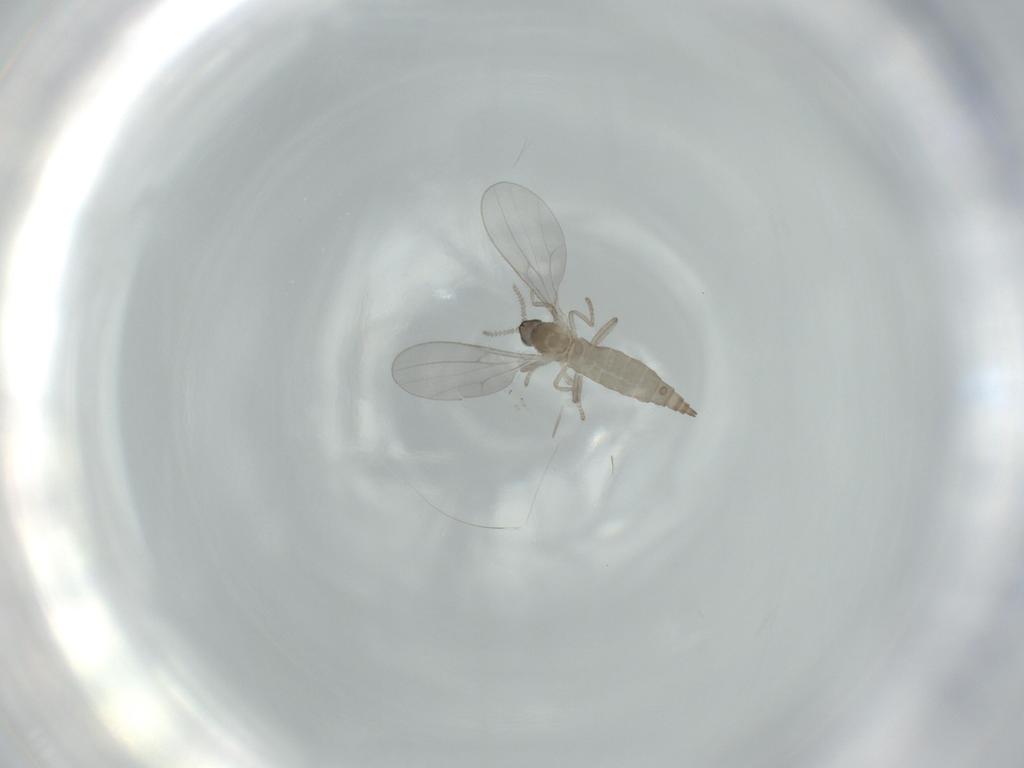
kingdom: Animalia
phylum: Arthropoda
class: Insecta
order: Diptera
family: Cecidomyiidae
